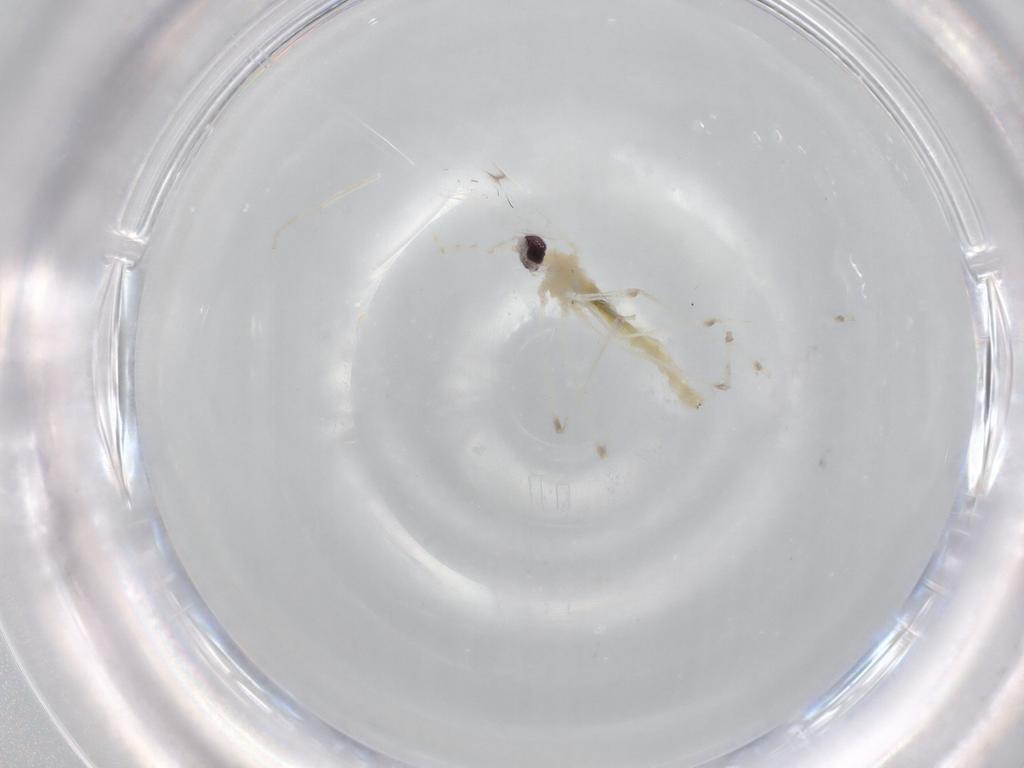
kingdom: Animalia
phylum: Arthropoda
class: Insecta
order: Diptera
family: Cecidomyiidae
